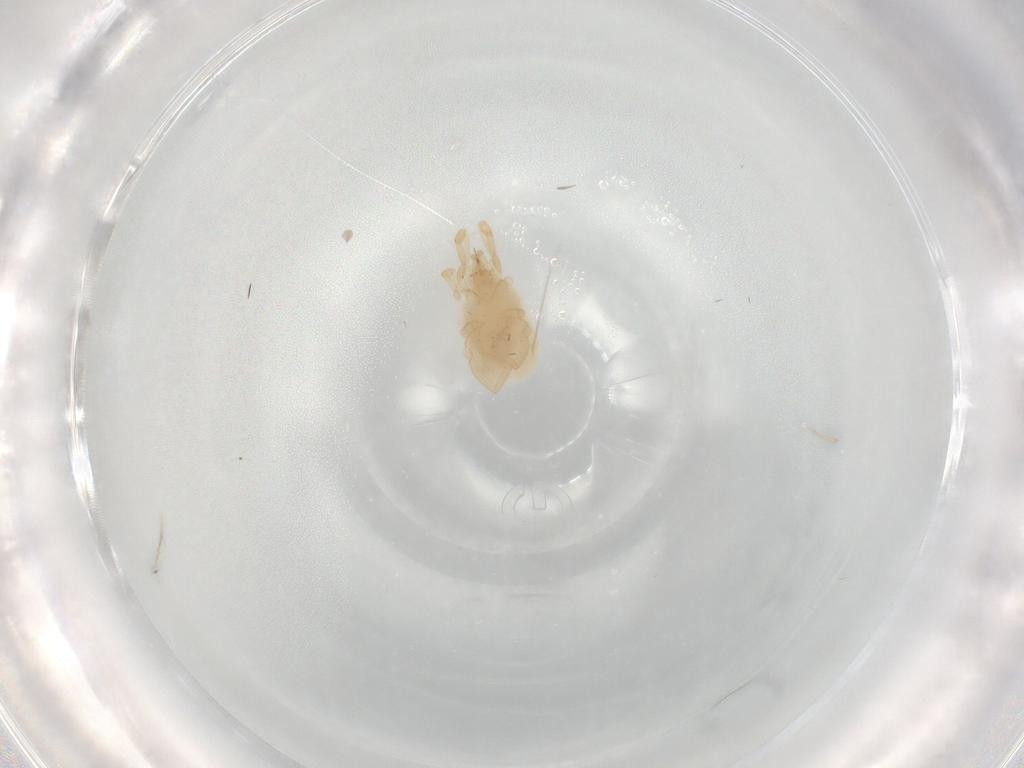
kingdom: Animalia
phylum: Arthropoda
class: Arachnida
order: Trombidiformes
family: Erythraeidae
